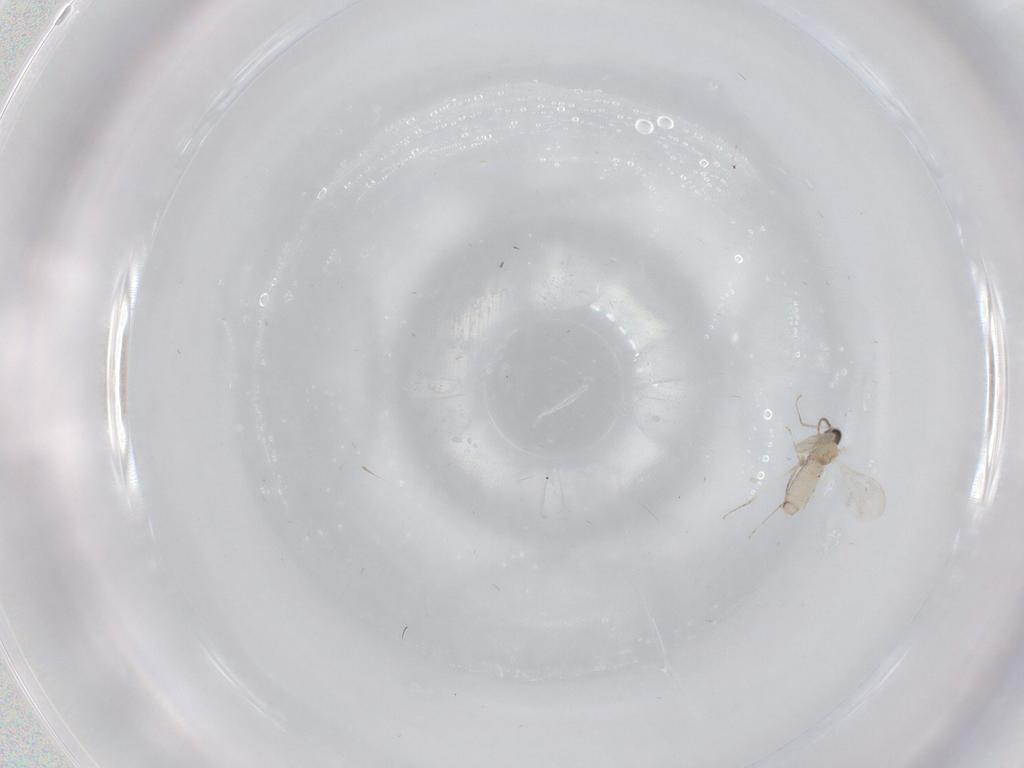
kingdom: Animalia
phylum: Arthropoda
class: Insecta
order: Diptera
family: Cecidomyiidae
